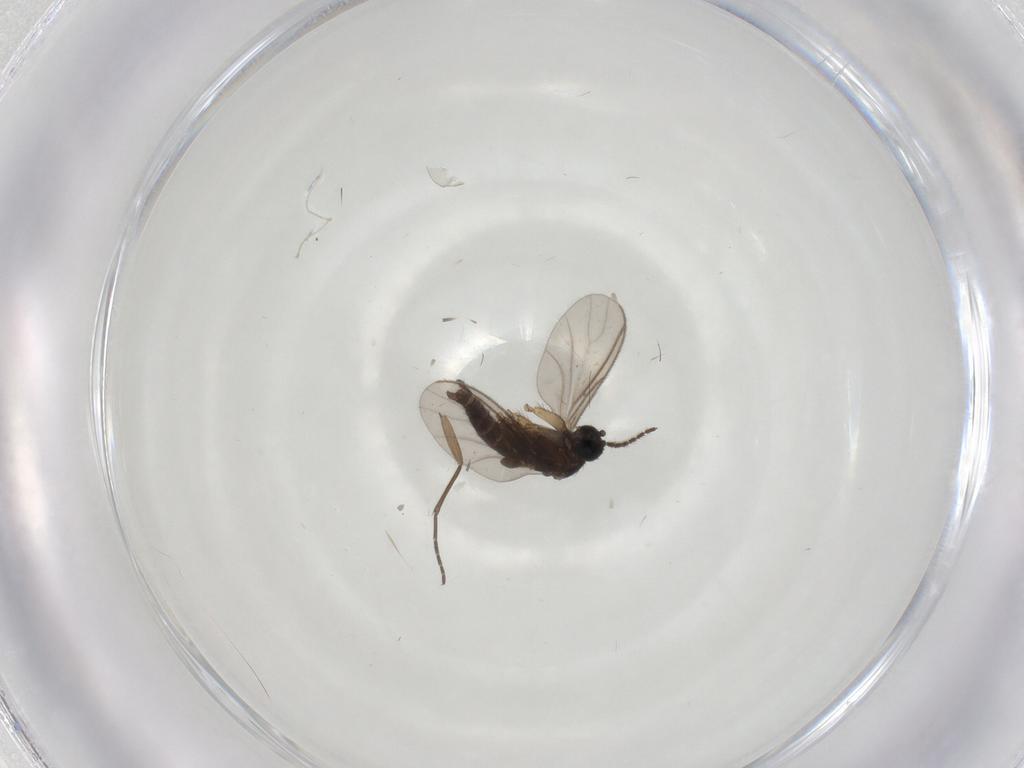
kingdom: Animalia
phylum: Arthropoda
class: Insecta
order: Diptera
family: Sciaridae
